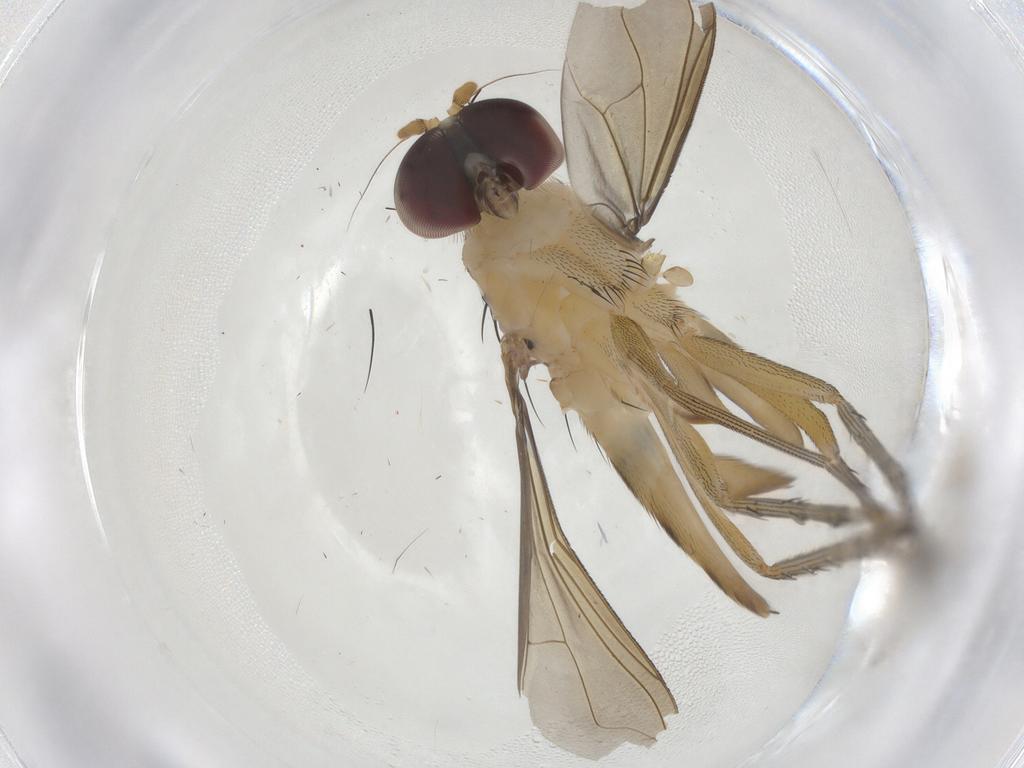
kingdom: Animalia
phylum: Arthropoda
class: Insecta
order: Diptera
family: Dolichopodidae
